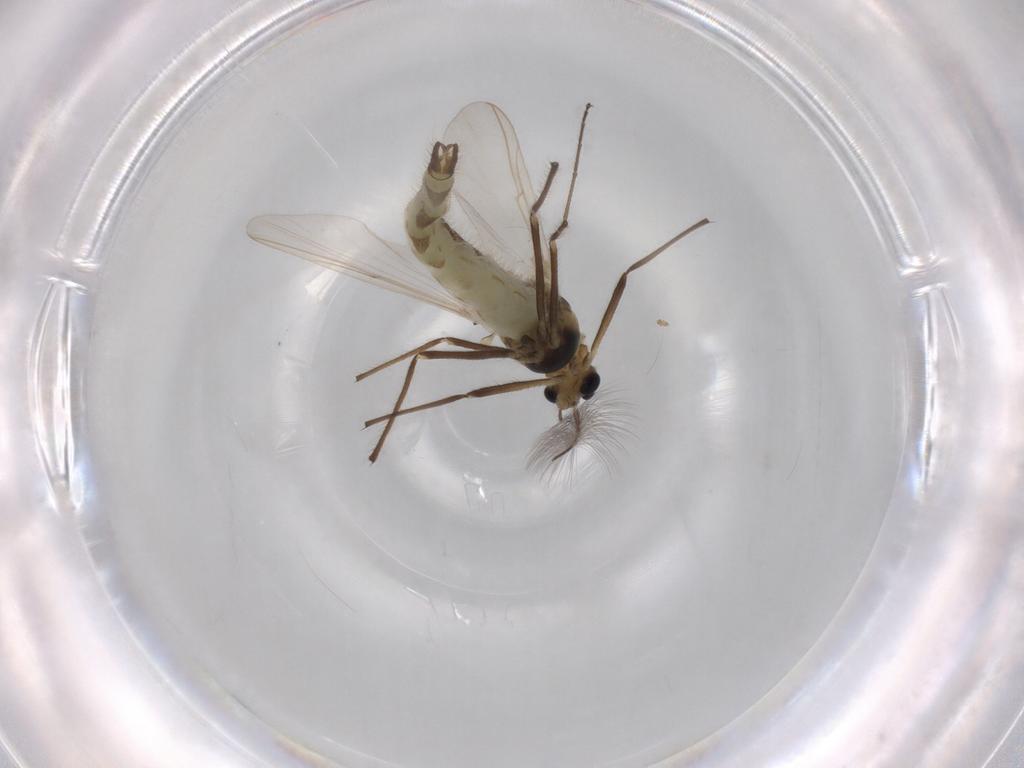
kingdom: Animalia
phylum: Arthropoda
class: Insecta
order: Diptera
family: Chironomidae
